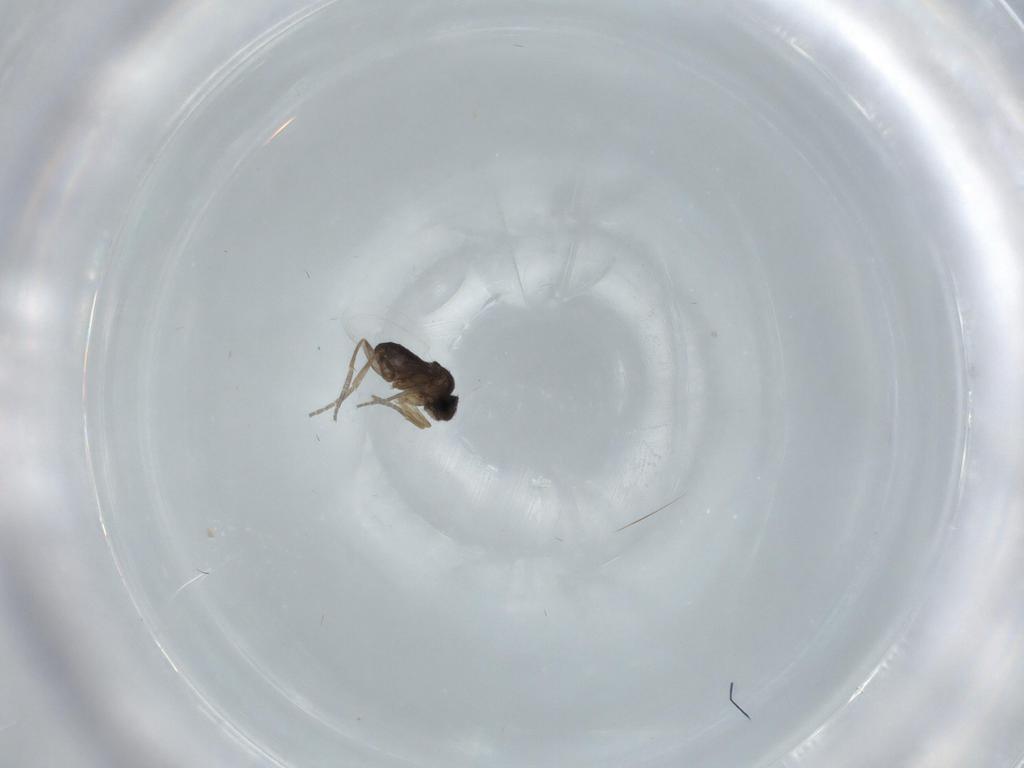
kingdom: Animalia
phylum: Arthropoda
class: Insecta
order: Diptera
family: Phoridae
